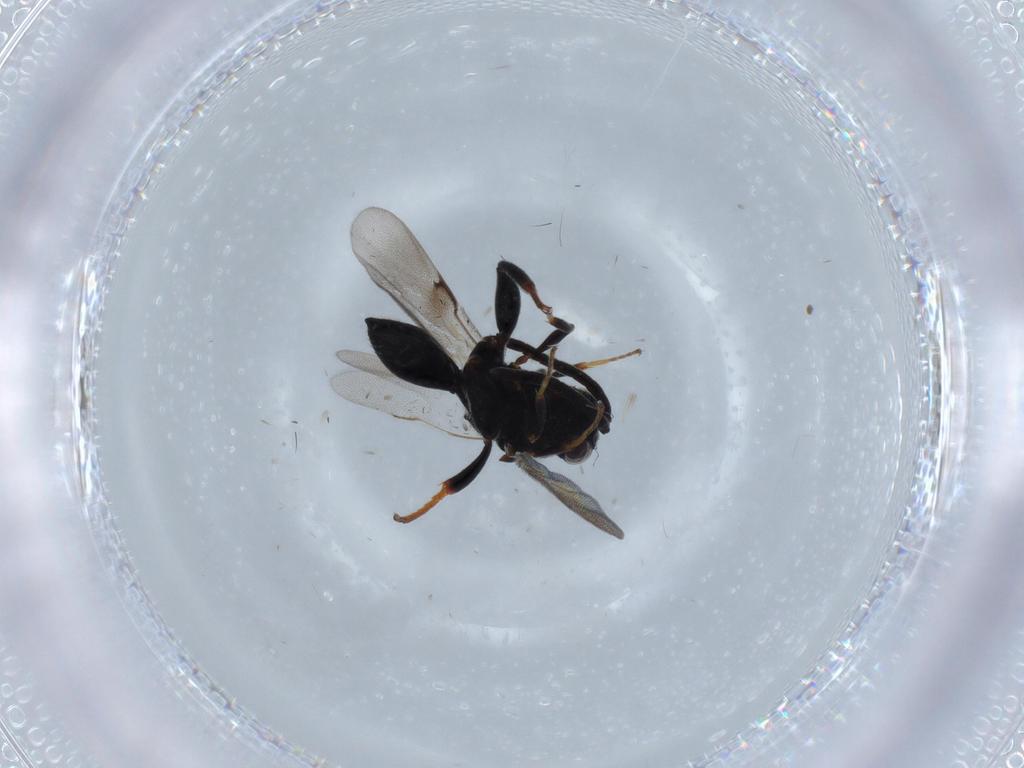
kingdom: Animalia
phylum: Arthropoda
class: Insecta
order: Hymenoptera
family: Chalcididae
